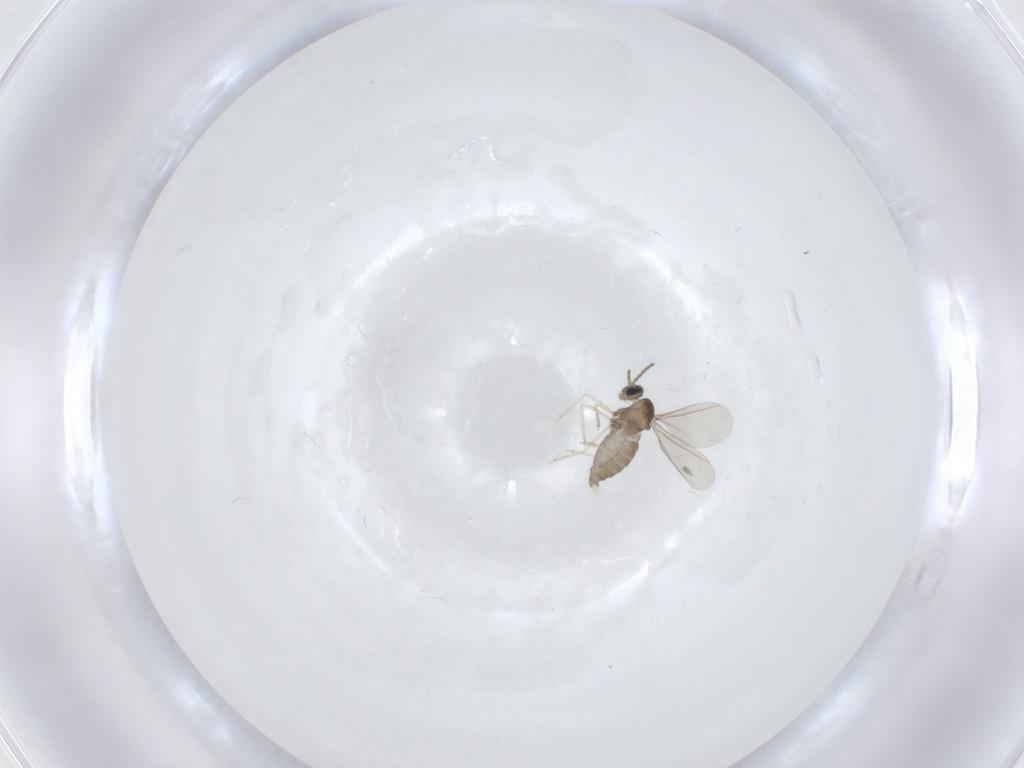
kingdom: Animalia
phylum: Arthropoda
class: Insecta
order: Diptera
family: Cecidomyiidae
